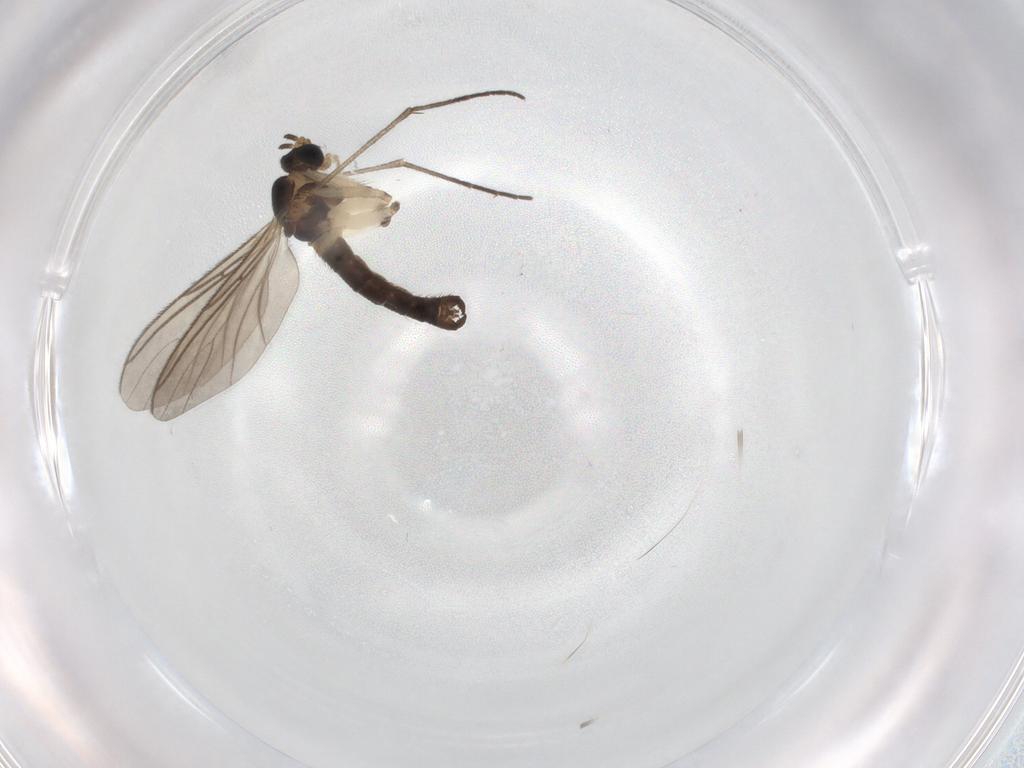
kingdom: Animalia
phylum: Arthropoda
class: Insecta
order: Diptera
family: Sciaridae
